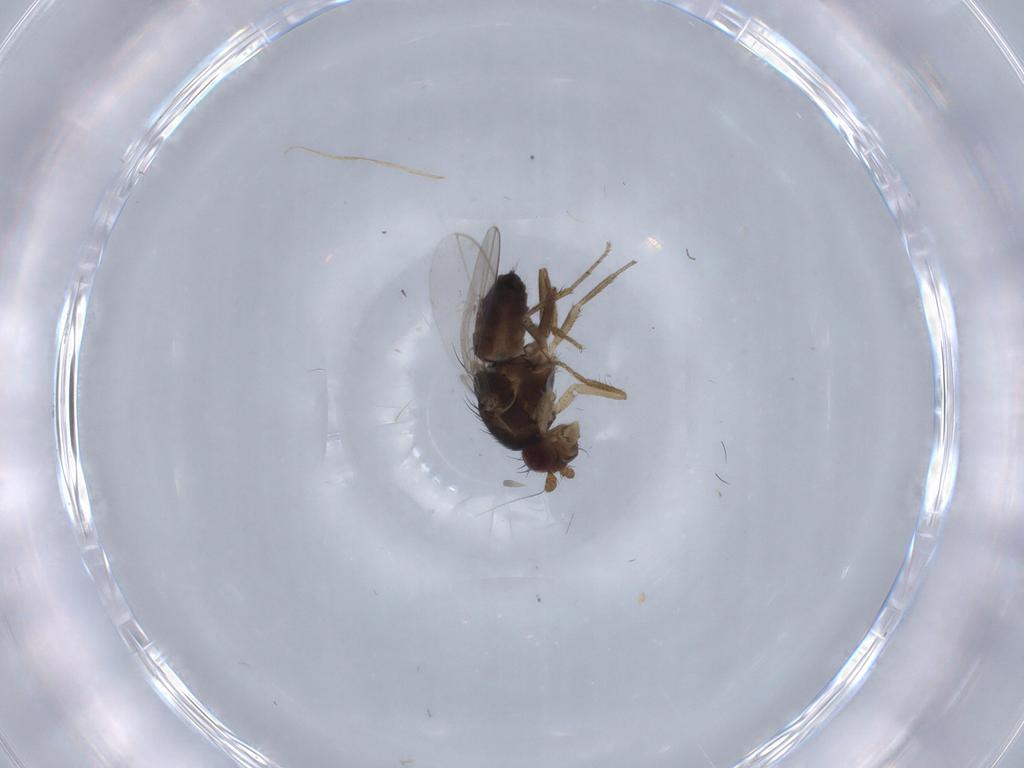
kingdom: Animalia
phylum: Arthropoda
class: Insecta
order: Diptera
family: Sphaeroceridae
